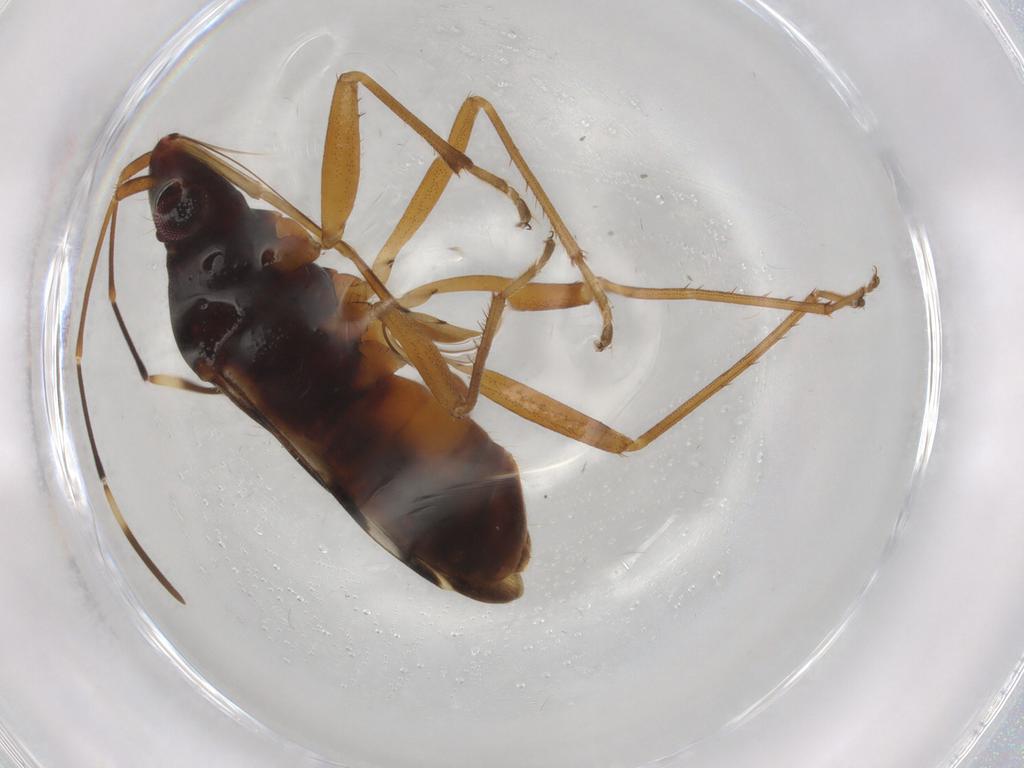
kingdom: Animalia
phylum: Arthropoda
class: Insecta
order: Hemiptera
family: Rhyparochromidae
